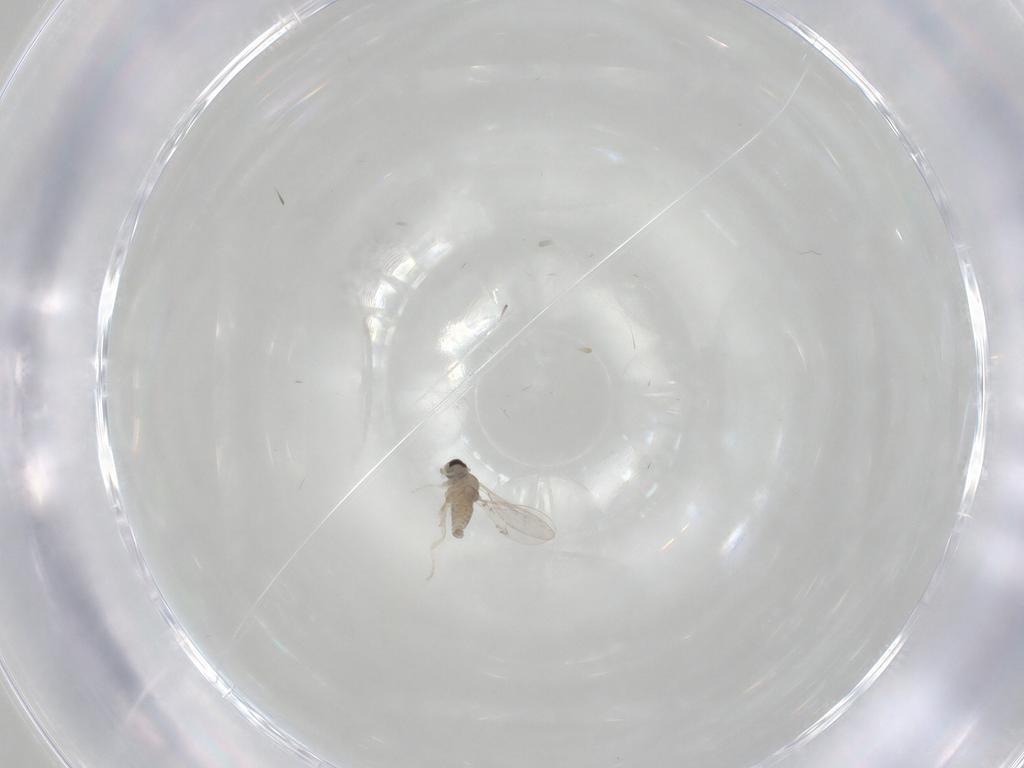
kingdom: Animalia
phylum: Arthropoda
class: Insecta
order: Diptera
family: Cecidomyiidae
